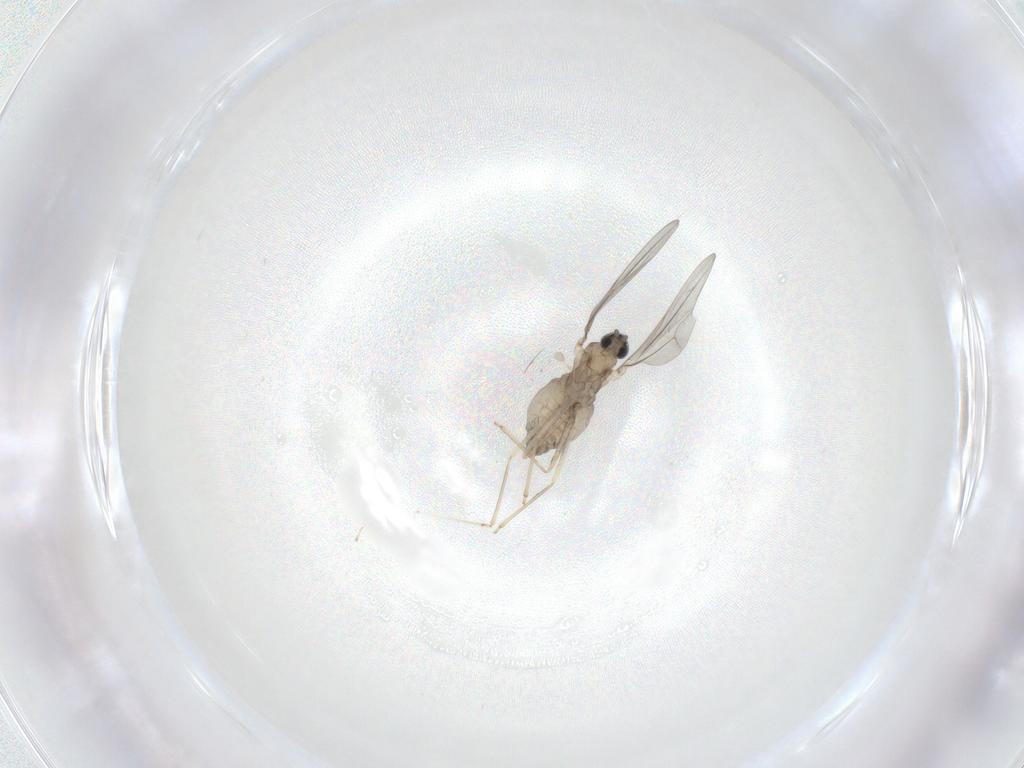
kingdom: Animalia
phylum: Arthropoda
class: Insecta
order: Diptera
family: Cecidomyiidae
